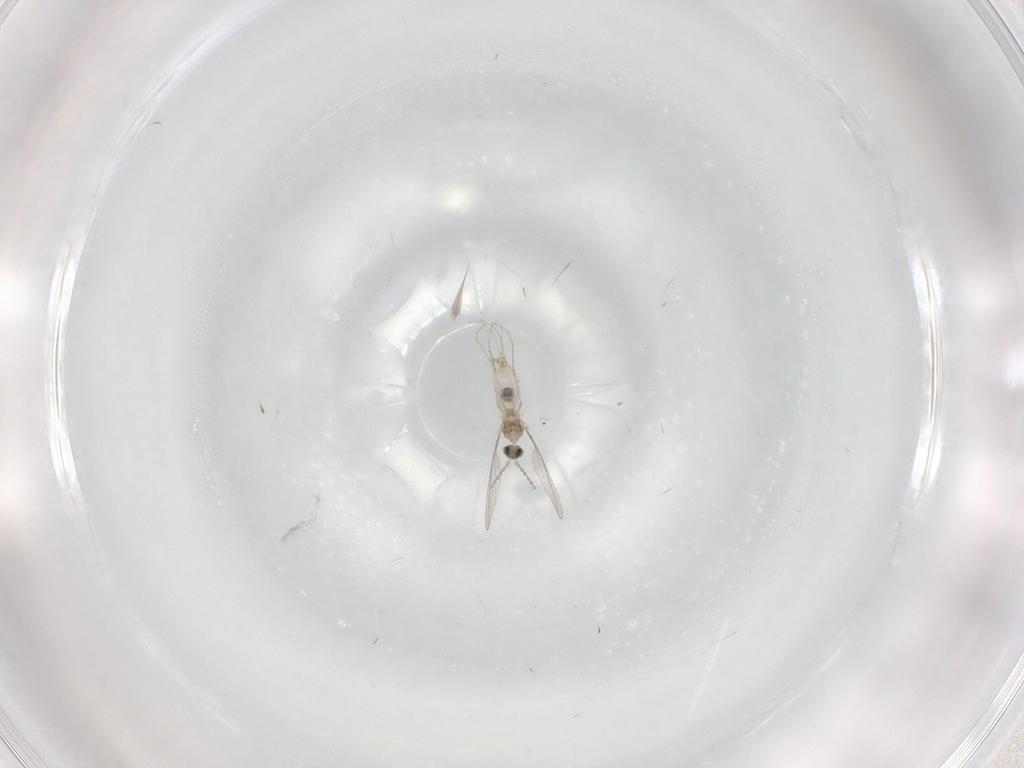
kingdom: Animalia
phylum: Arthropoda
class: Insecta
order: Diptera
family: Cecidomyiidae
